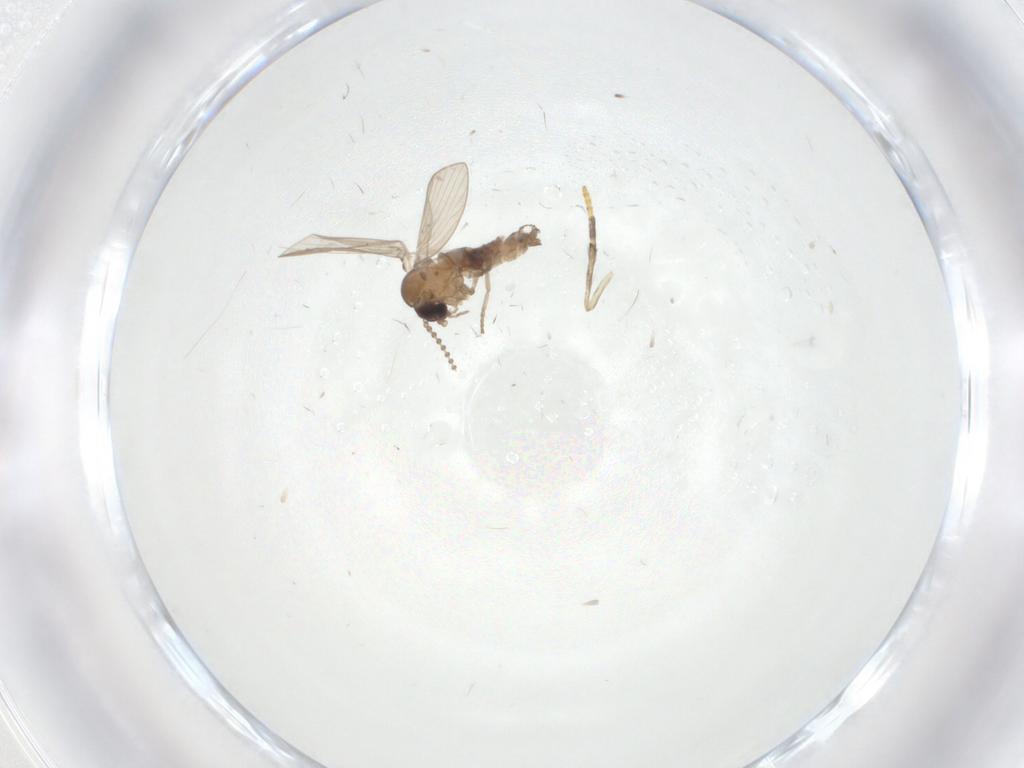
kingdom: Animalia
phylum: Arthropoda
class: Insecta
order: Diptera
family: Psychodidae
